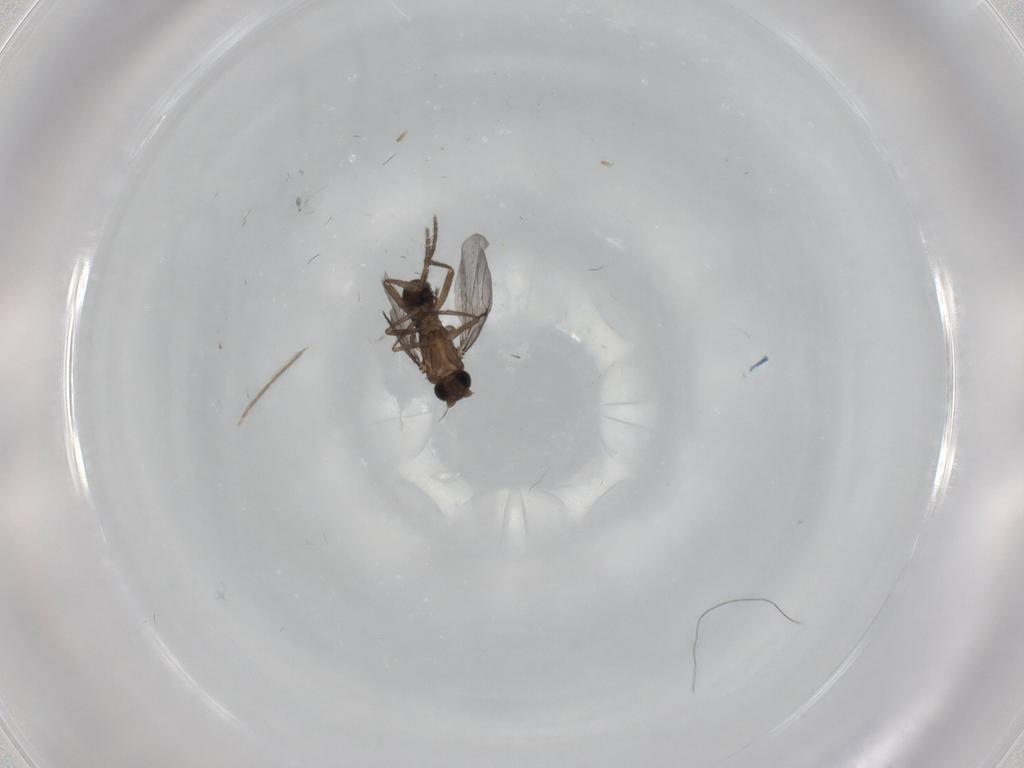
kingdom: Animalia
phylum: Arthropoda
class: Insecta
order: Diptera
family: Phoridae
